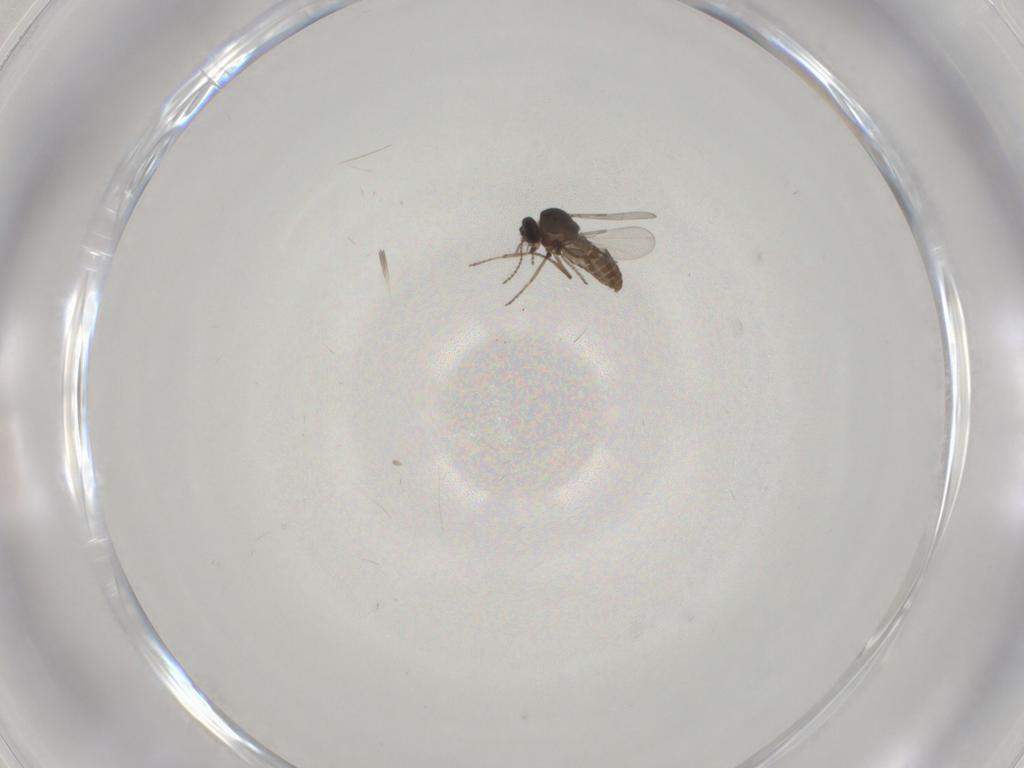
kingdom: Animalia
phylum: Arthropoda
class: Insecta
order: Diptera
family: Ceratopogonidae
